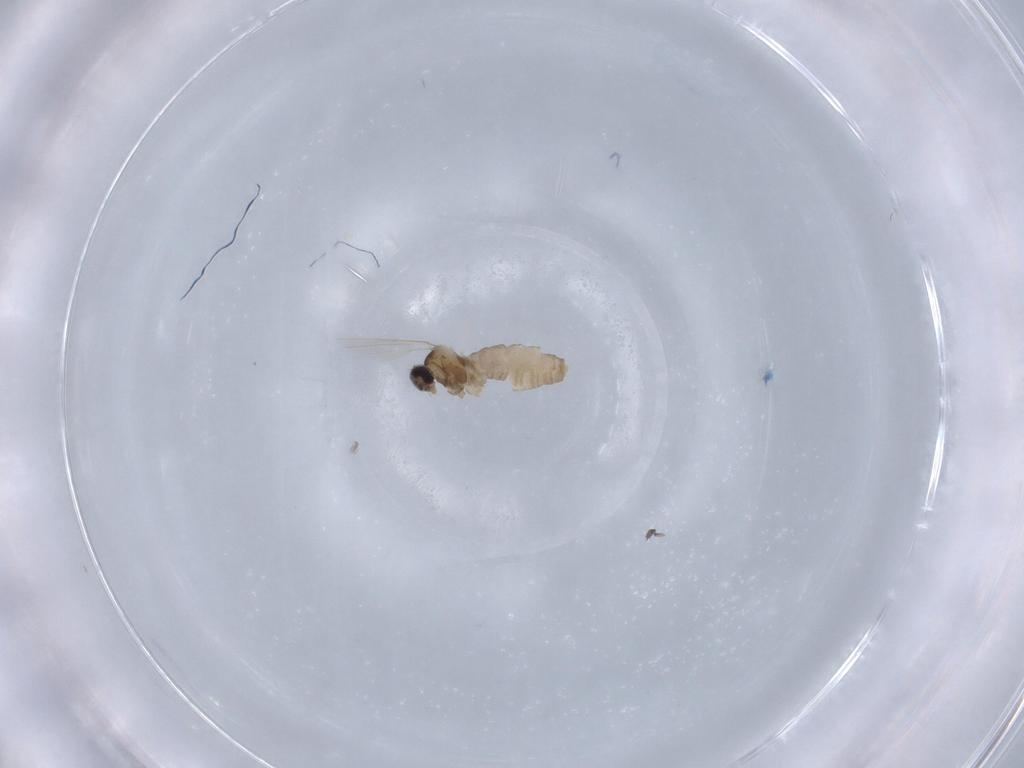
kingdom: Animalia
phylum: Arthropoda
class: Insecta
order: Diptera
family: Cecidomyiidae
